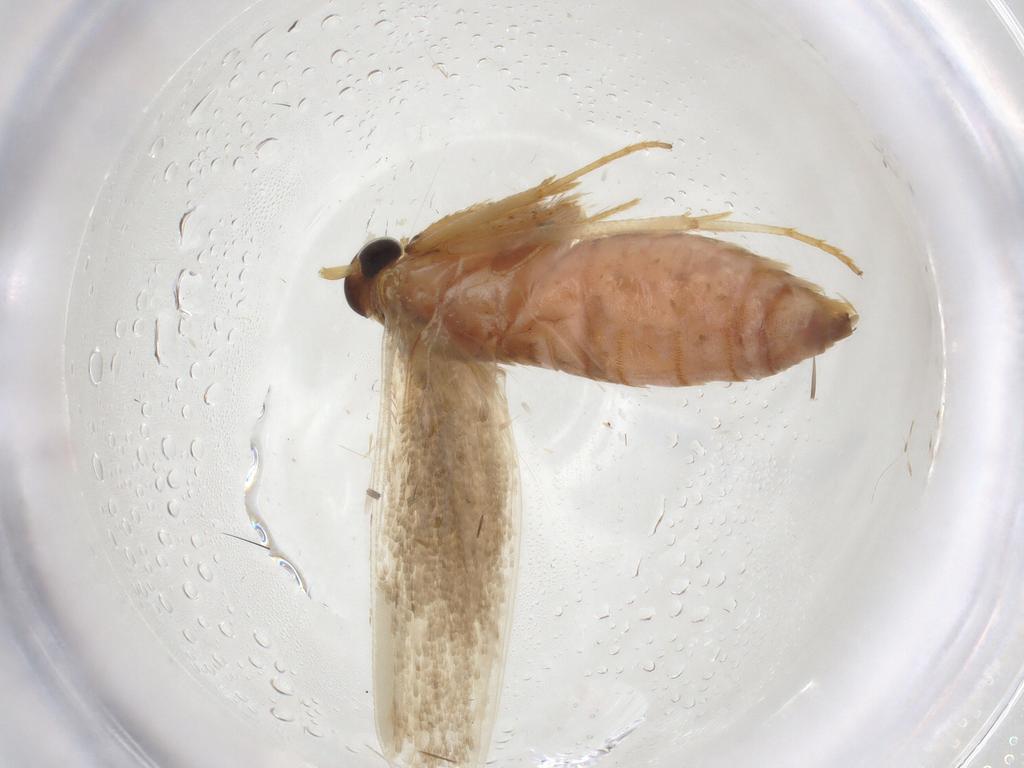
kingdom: Animalia
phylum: Arthropoda
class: Insecta
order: Lepidoptera
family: Blastobasidae
